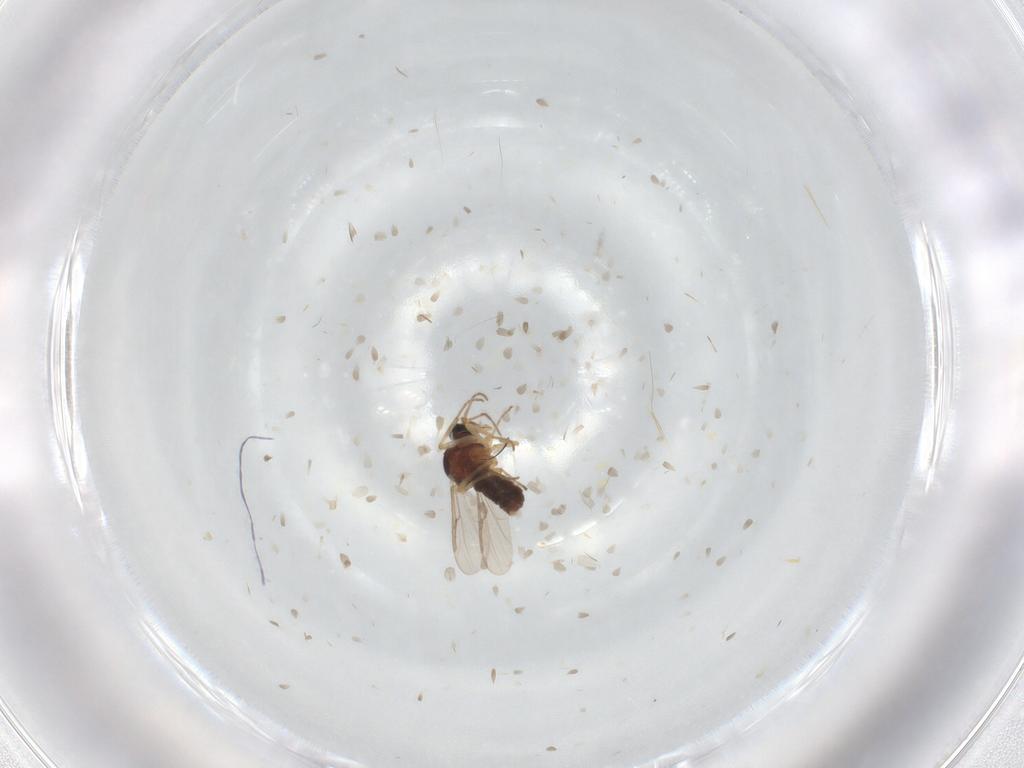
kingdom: Animalia
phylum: Arthropoda
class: Insecta
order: Diptera
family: Ceratopogonidae
